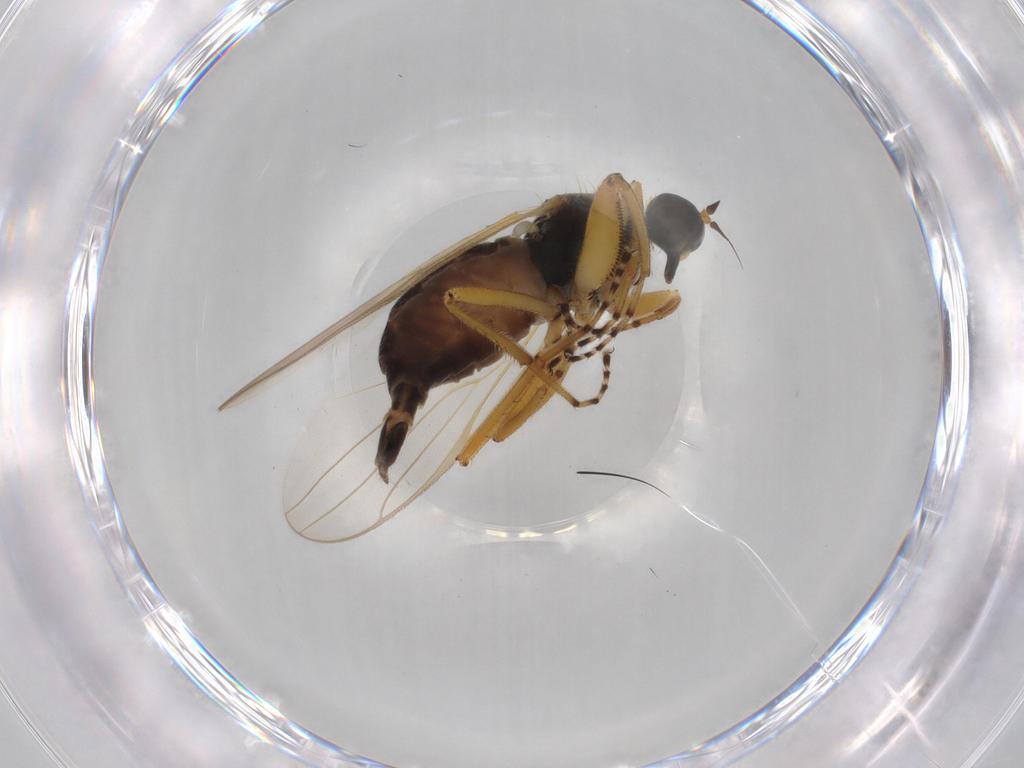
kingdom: Animalia
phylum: Arthropoda
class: Insecta
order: Diptera
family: Hybotidae
